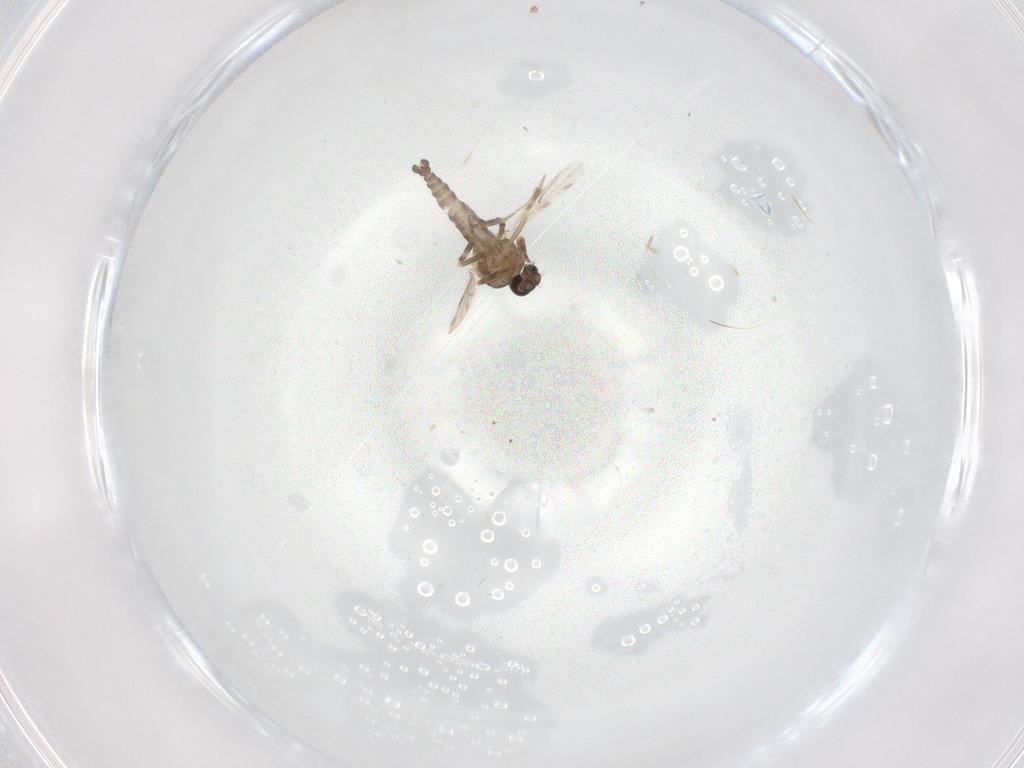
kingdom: Animalia
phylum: Arthropoda
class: Insecta
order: Diptera
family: Ceratopogonidae
